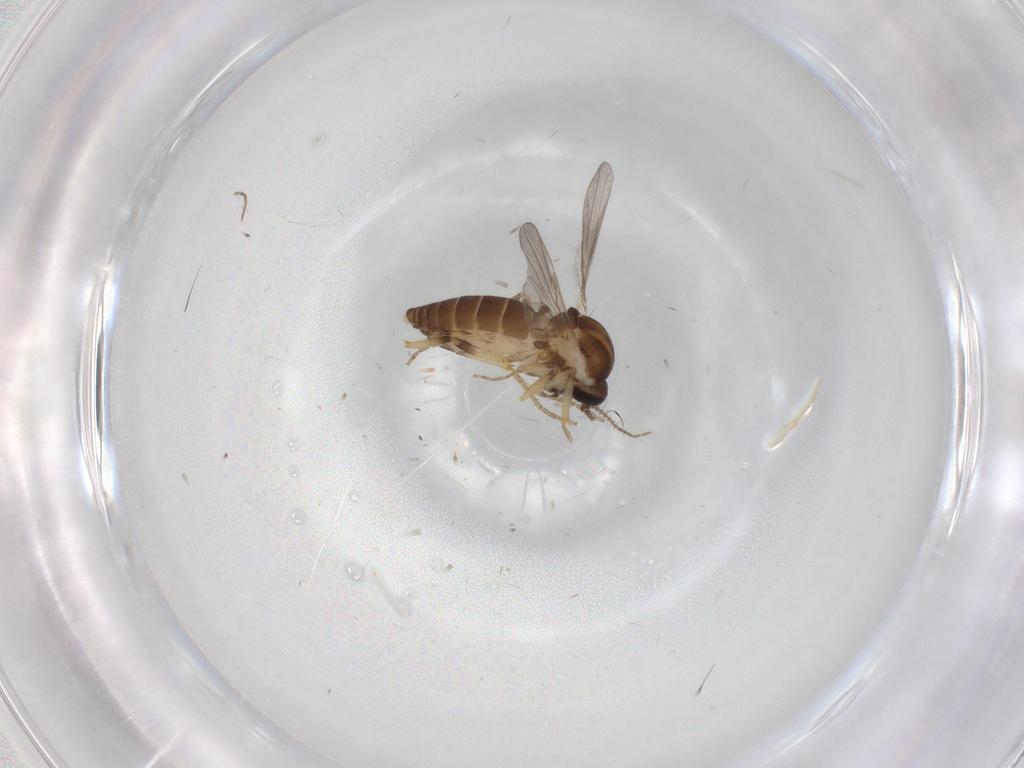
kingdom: Animalia
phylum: Arthropoda
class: Insecta
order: Diptera
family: Ceratopogonidae
